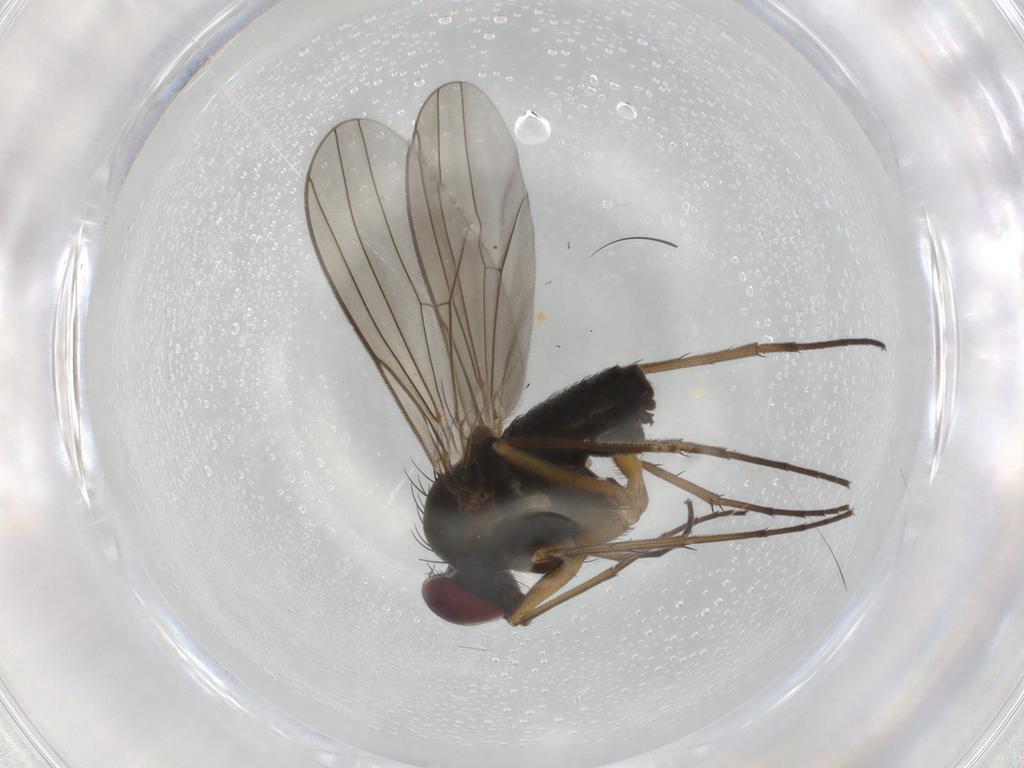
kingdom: Animalia
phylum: Arthropoda
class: Insecta
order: Diptera
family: Dolichopodidae
